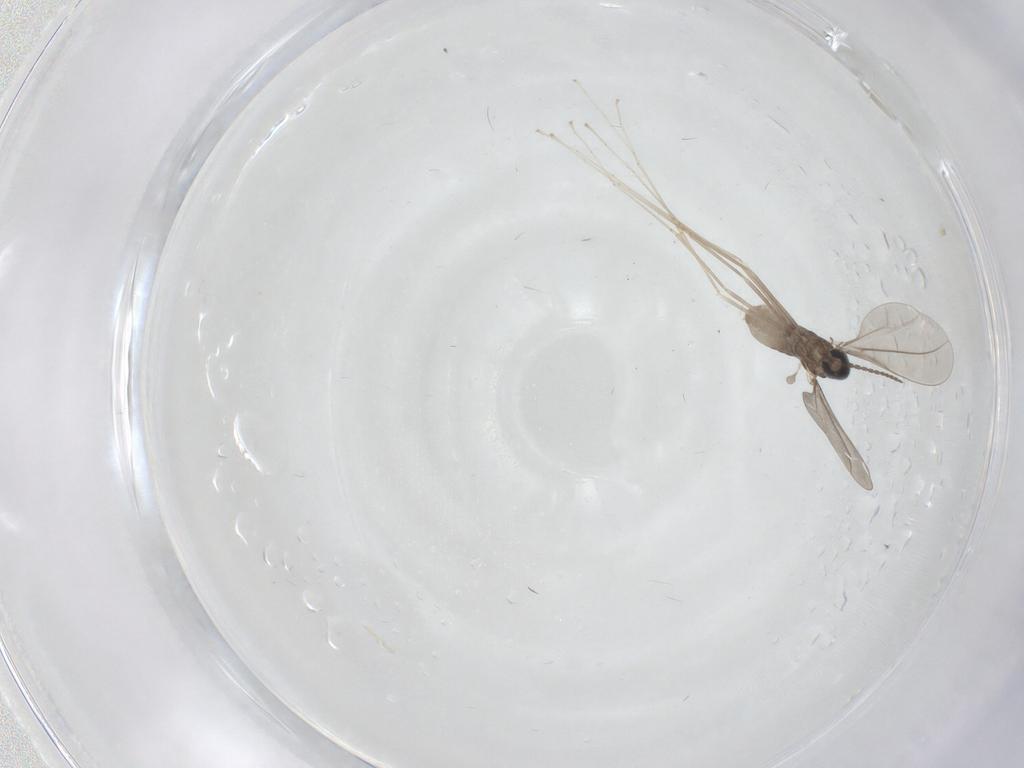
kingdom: Animalia
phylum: Arthropoda
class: Insecta
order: Diptera
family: Cecidomyiidae
